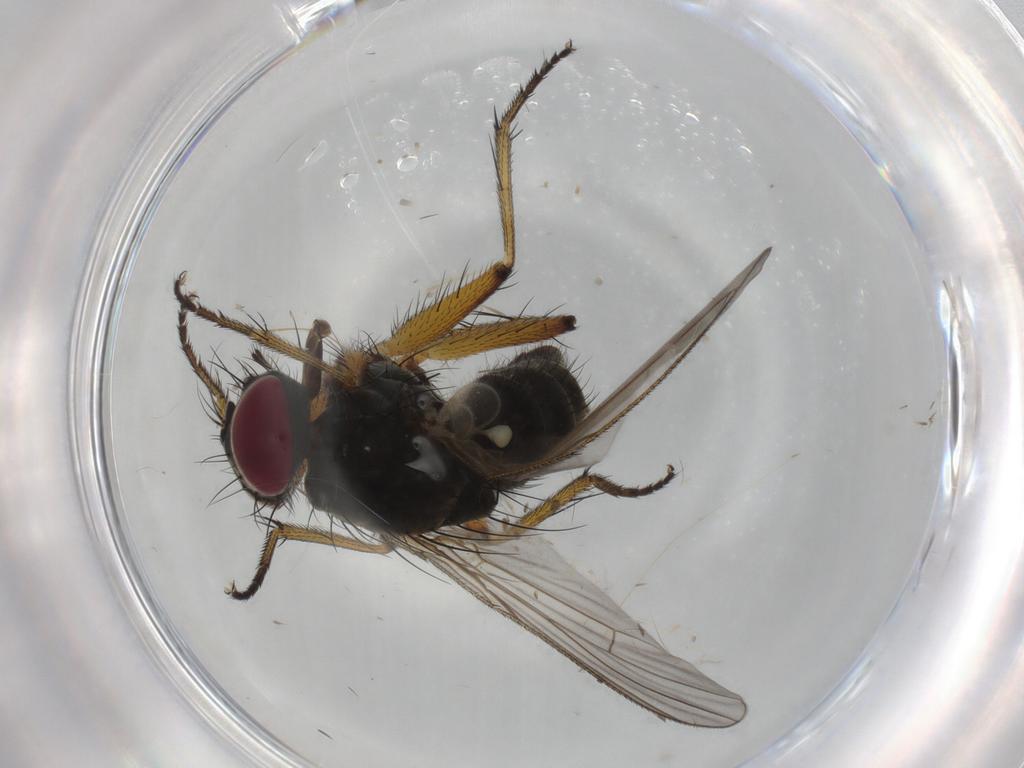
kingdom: Animalia
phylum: Arthropoda
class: Insecta
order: Diptera
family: Muscidae
